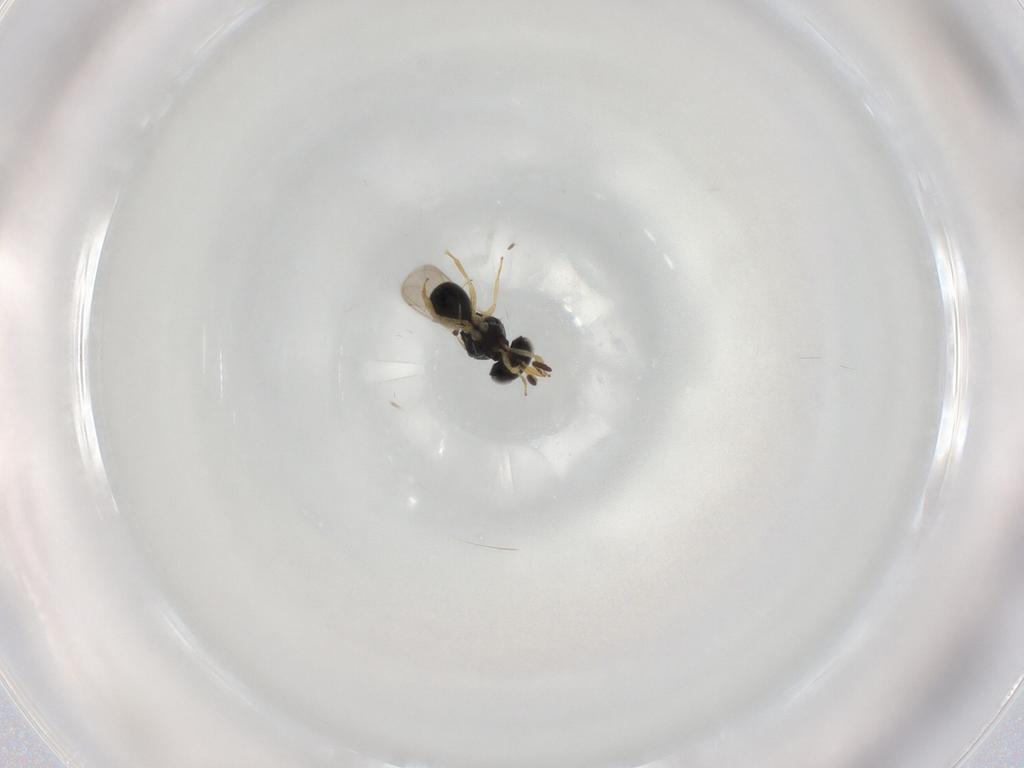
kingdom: Animalia
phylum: Arthropoda
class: Insecta
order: Hymenoptera
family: Scelionidae
